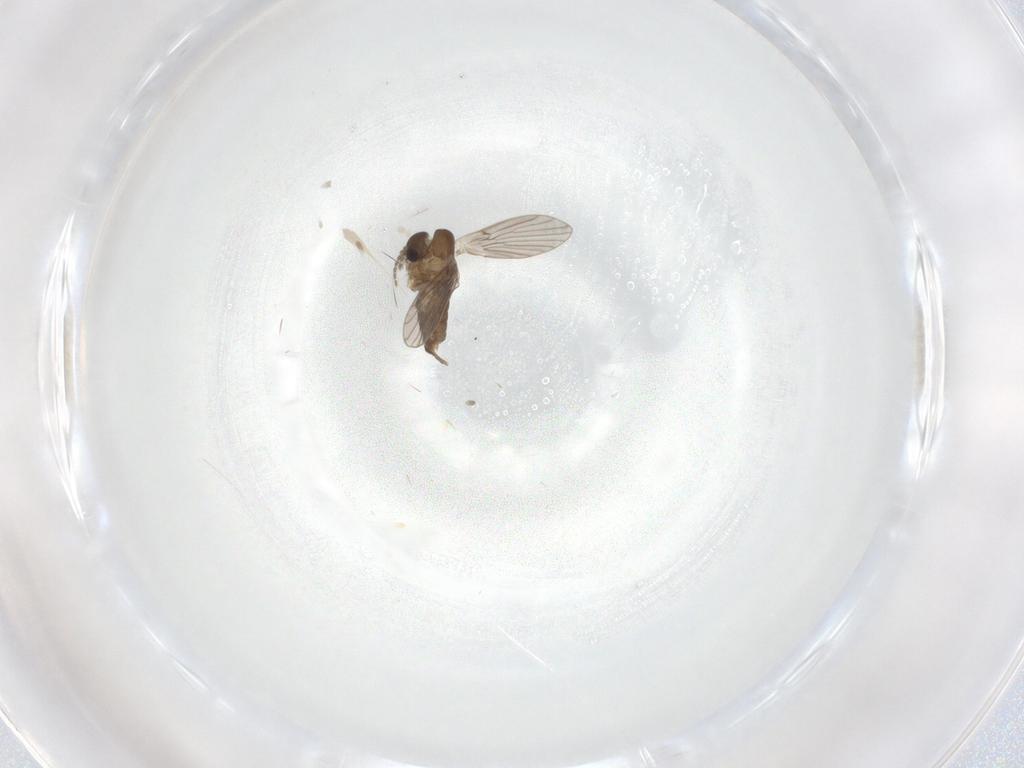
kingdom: Animalia
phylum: Arthropoda
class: Insecta
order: Diptera
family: Psychodidae
